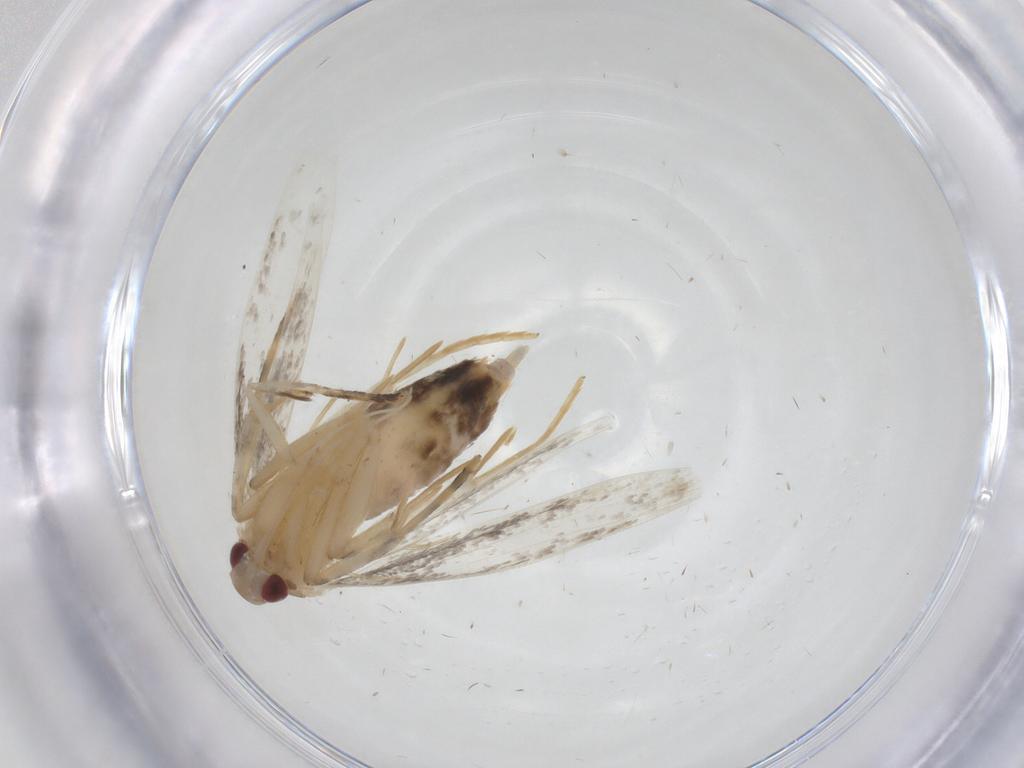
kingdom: Animalia
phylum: Arthropoda
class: Insecta
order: Lepidoptera
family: Cosmopterigidae
